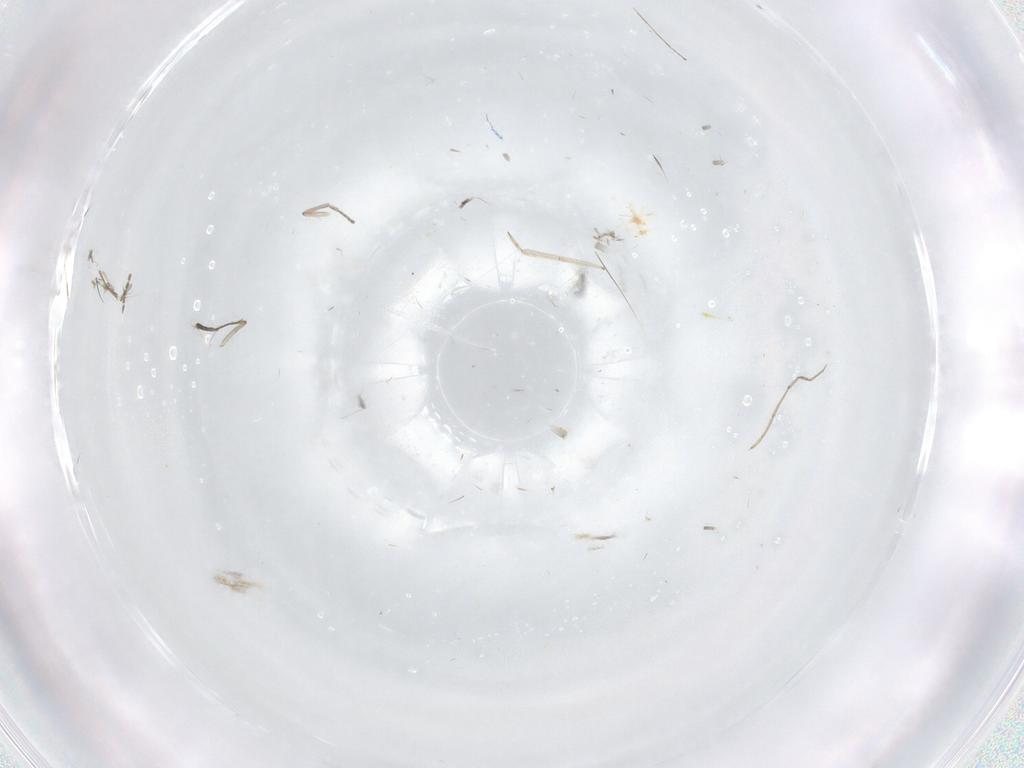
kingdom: Animalia
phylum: Arthropoda
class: Insecta
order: Diptera
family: Psychodidae
